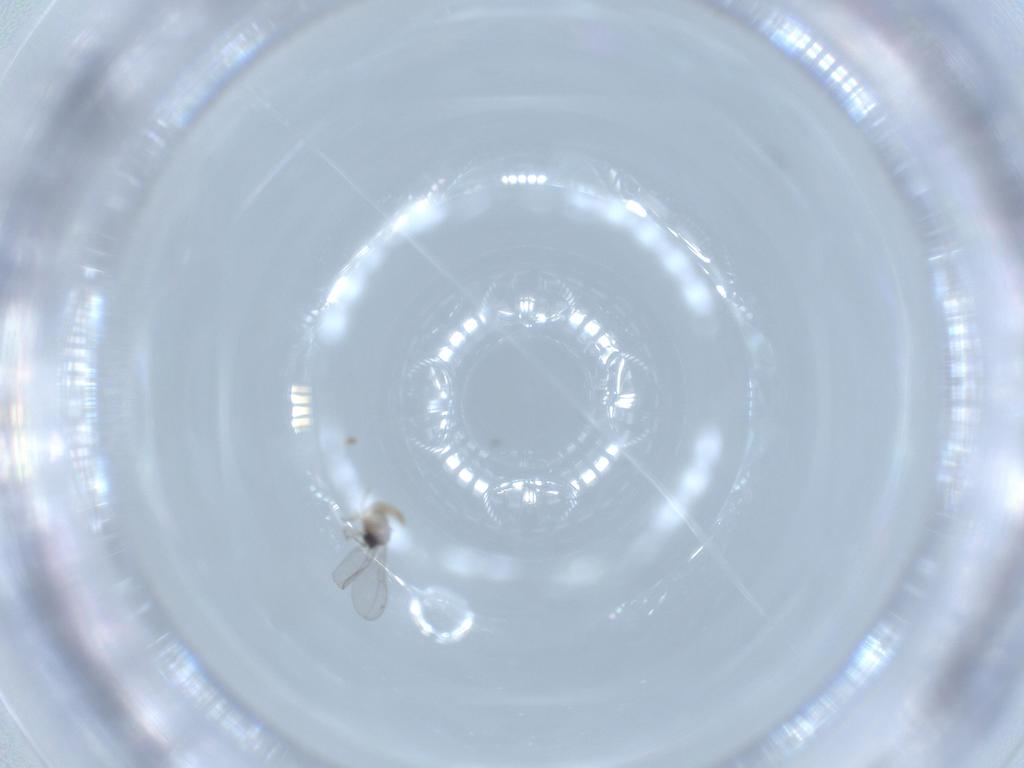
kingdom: Animalia
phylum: Arthropoda
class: Insecta
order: Diptera
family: Cecidomyiidae
